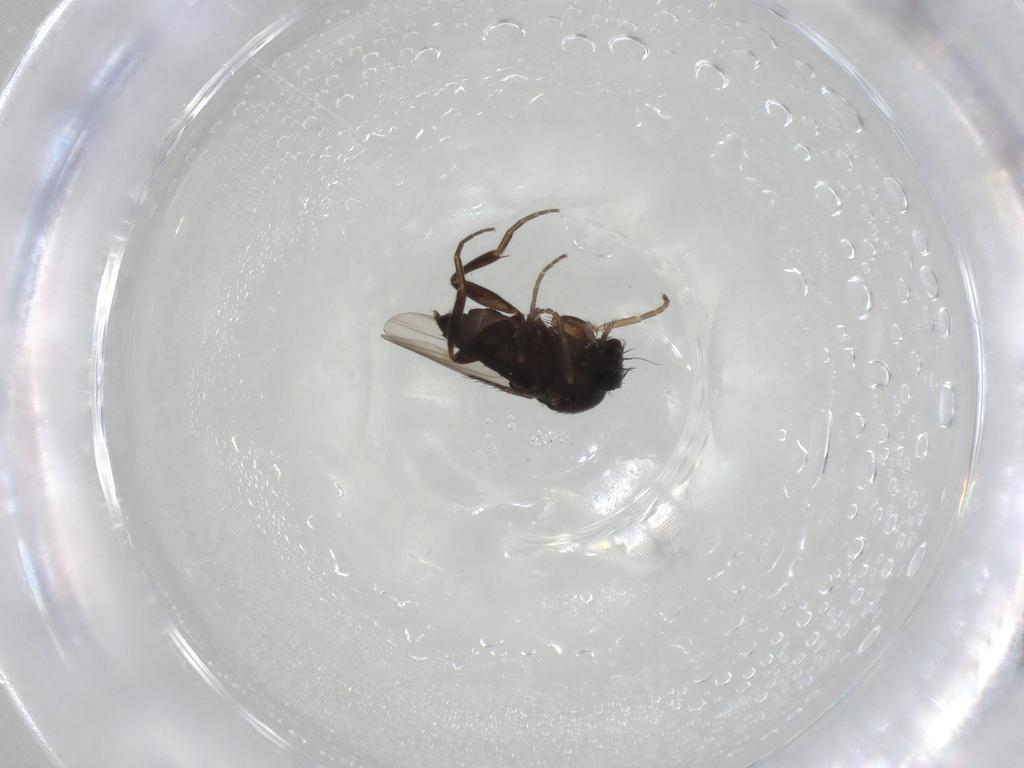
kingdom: Animalia
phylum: Arthropoda
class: Insecta
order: Diptera
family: Phoridae
